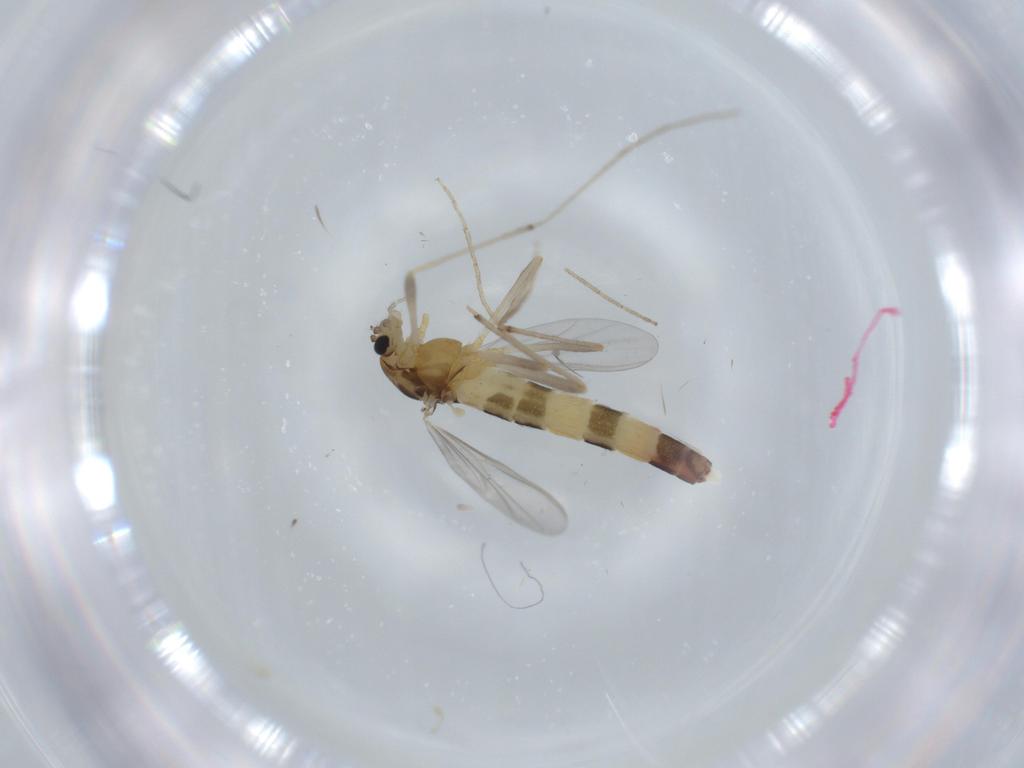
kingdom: Animalia
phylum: Arthropoda
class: Insecta
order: Diptera
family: Chironomidae
